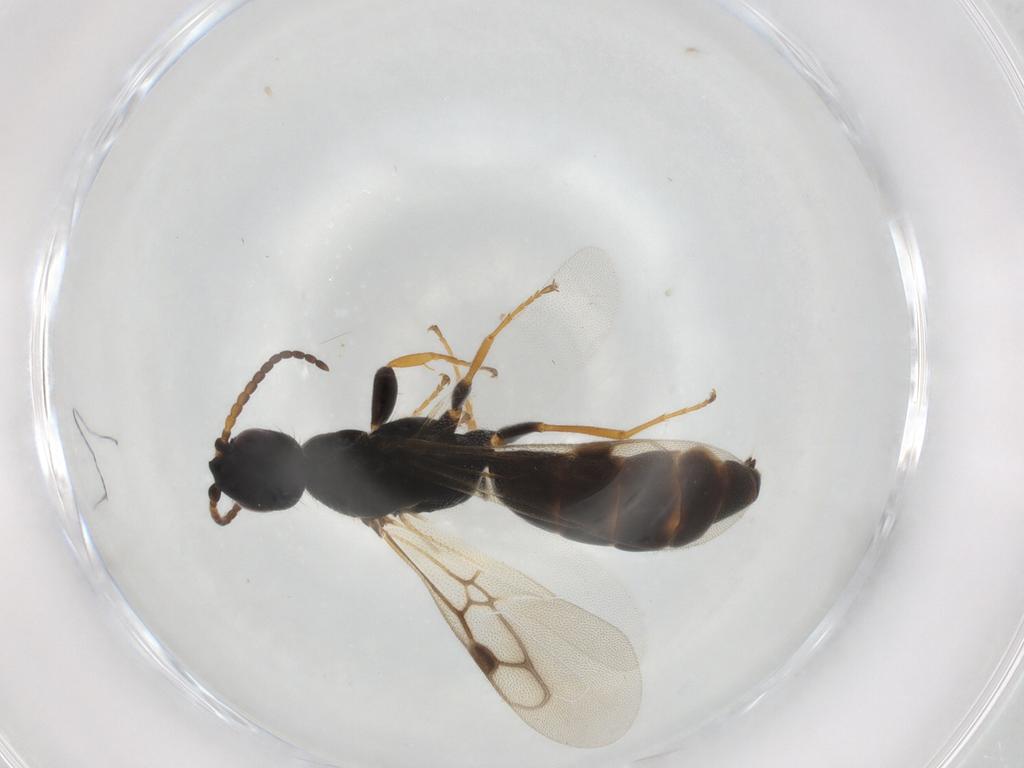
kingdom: Animalia
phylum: Arthropoda
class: Insecta
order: Hymenoptera
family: Bethylidae
